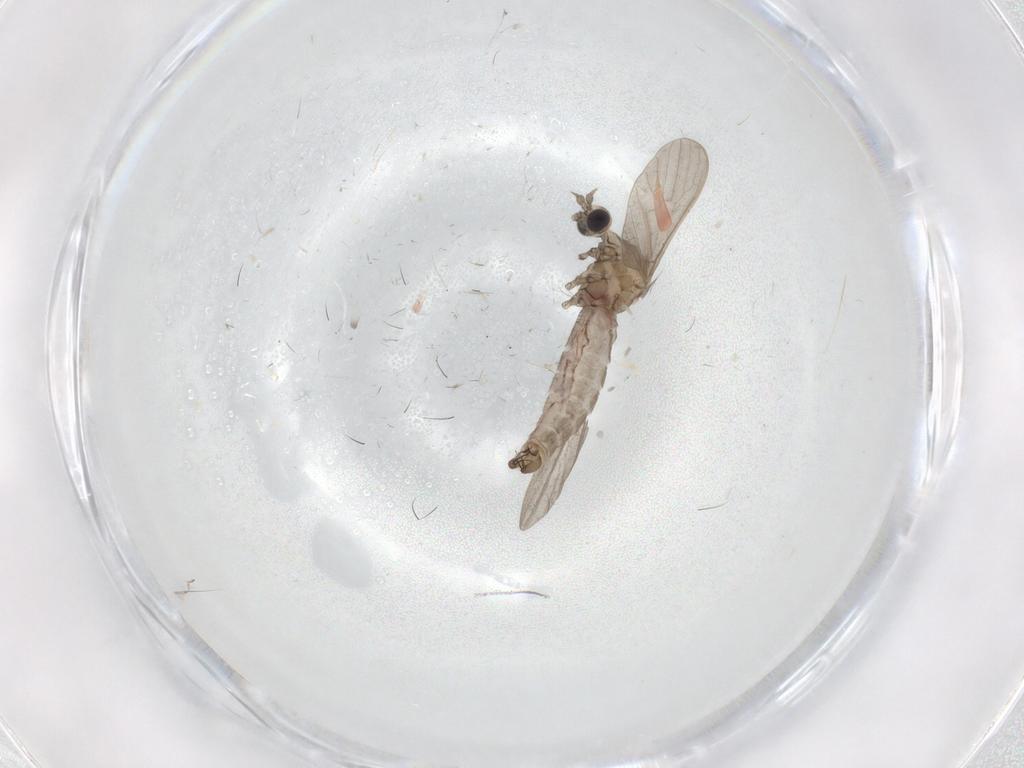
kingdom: Animalia
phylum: Arthropoda
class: Insecta
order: Diptera
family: Limoniidae
